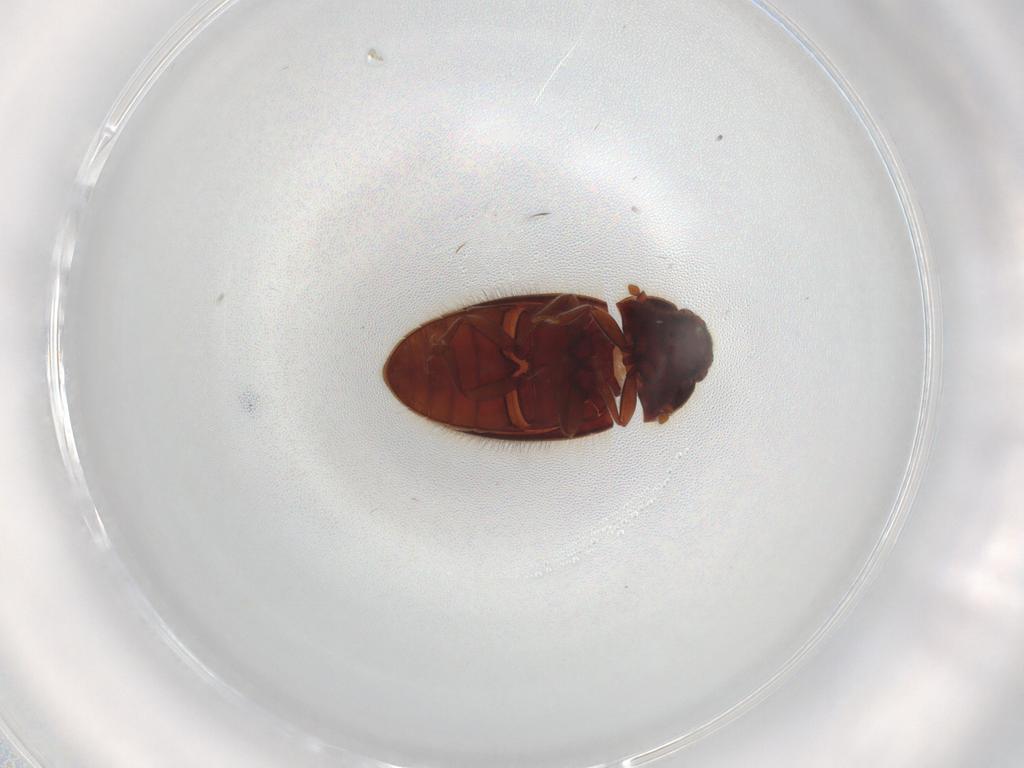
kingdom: Animalia
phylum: Arthropoda
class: Insecta
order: Coleoptera
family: Biphyllidae
